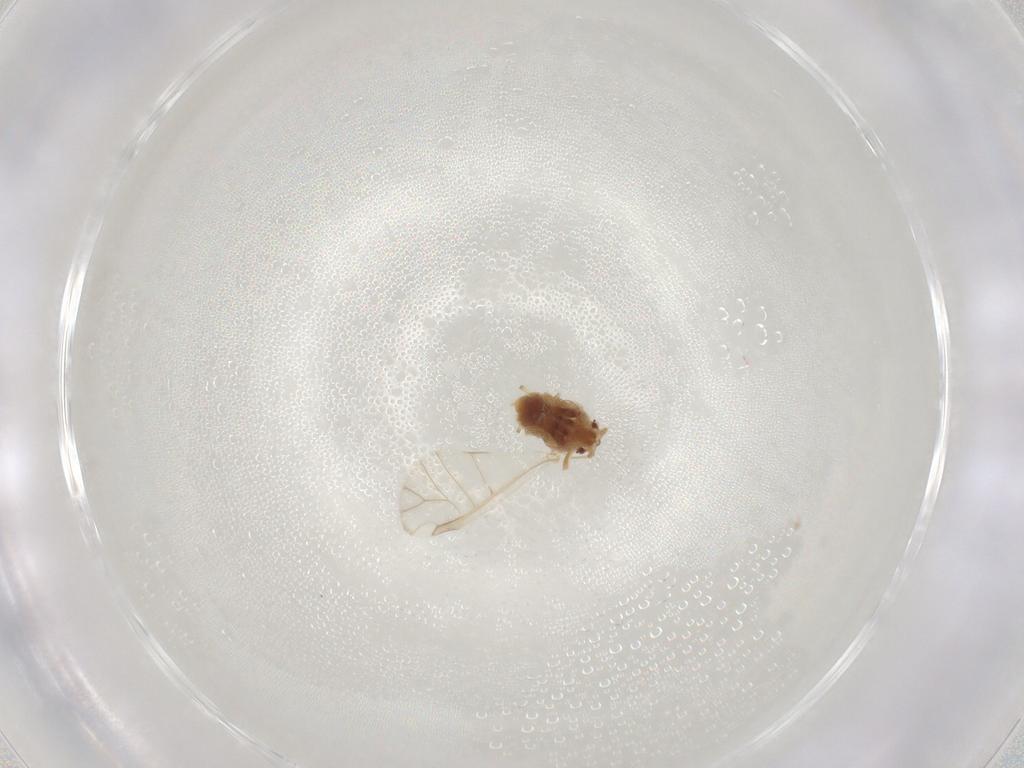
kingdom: Animalia
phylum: Arthropoda
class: Insecta
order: Hemiptera
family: Aphididae
